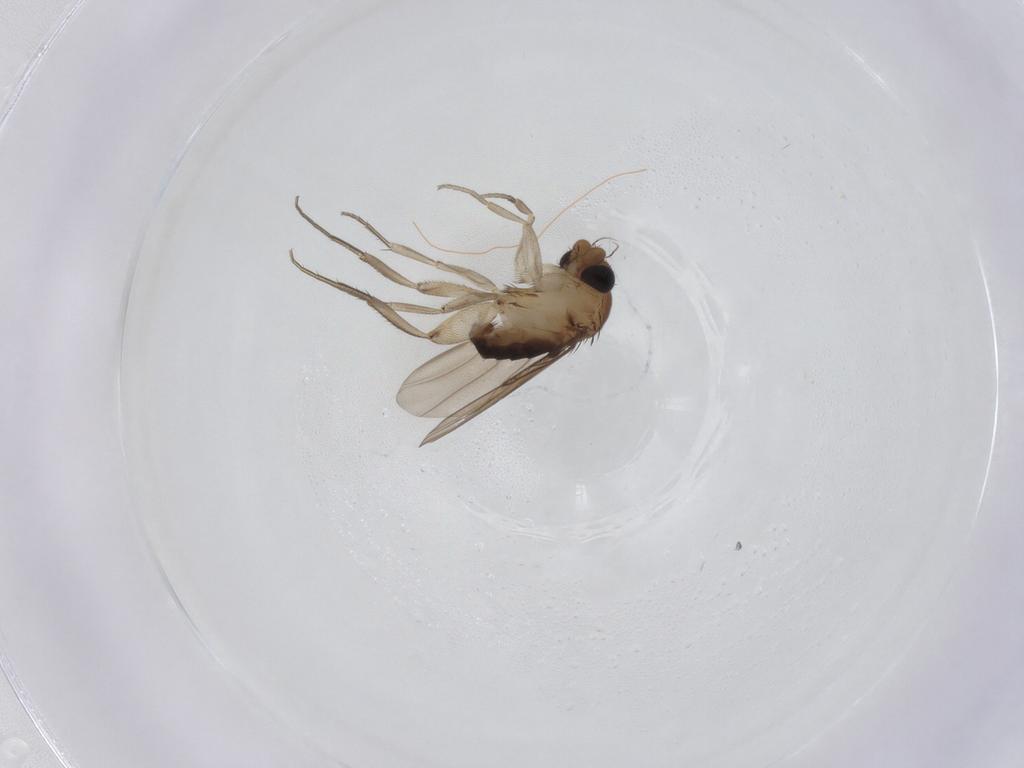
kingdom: Animalia
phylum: Arthropoda
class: Insecta
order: Diptera
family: Phoridae
